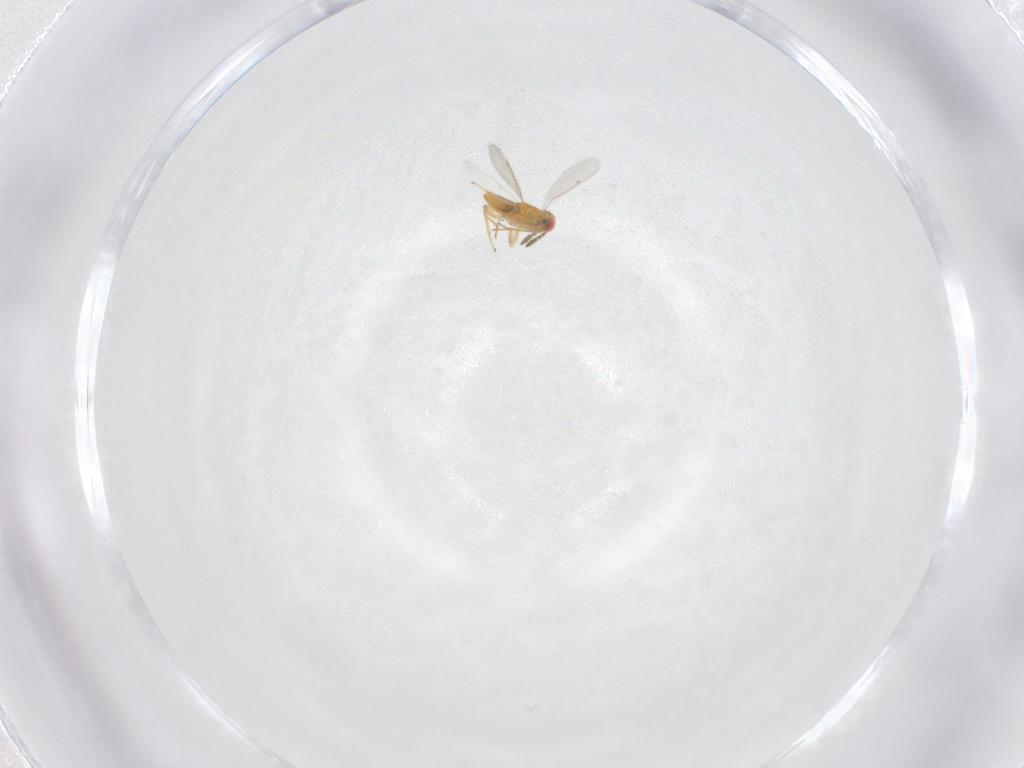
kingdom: Animalia
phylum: Arthropoda
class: Insecta
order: Hymenoptera
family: Aphelinidae
